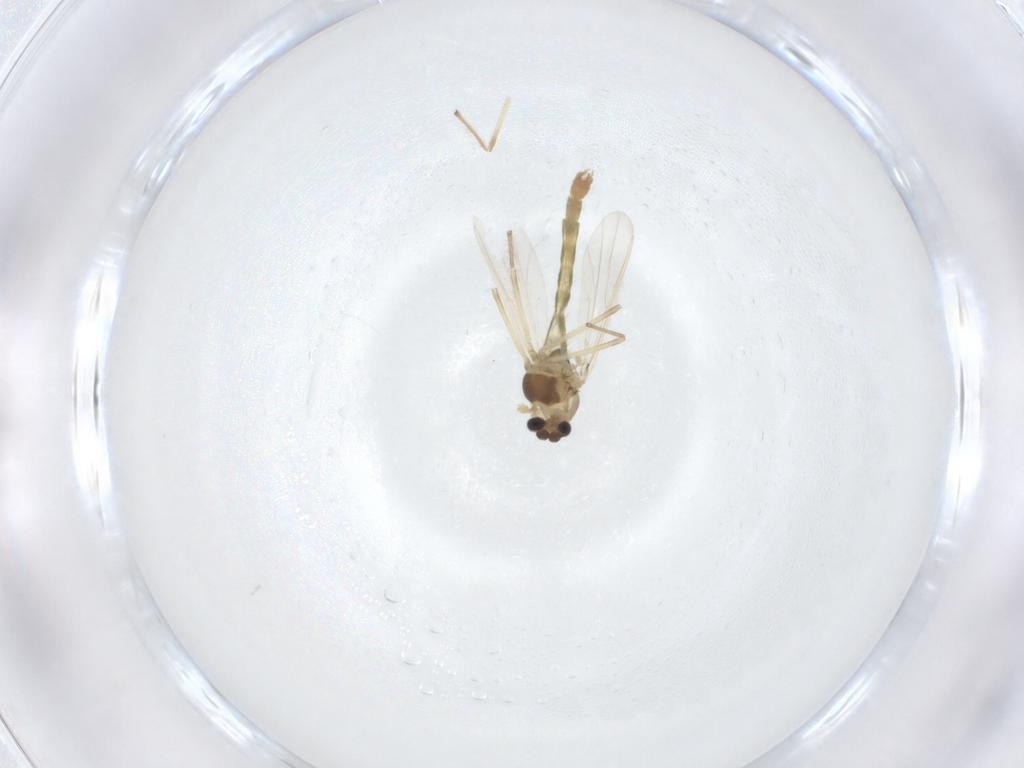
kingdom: Animalia
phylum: Arthropoda
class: Insecta
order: Diptera
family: Chironomidae
